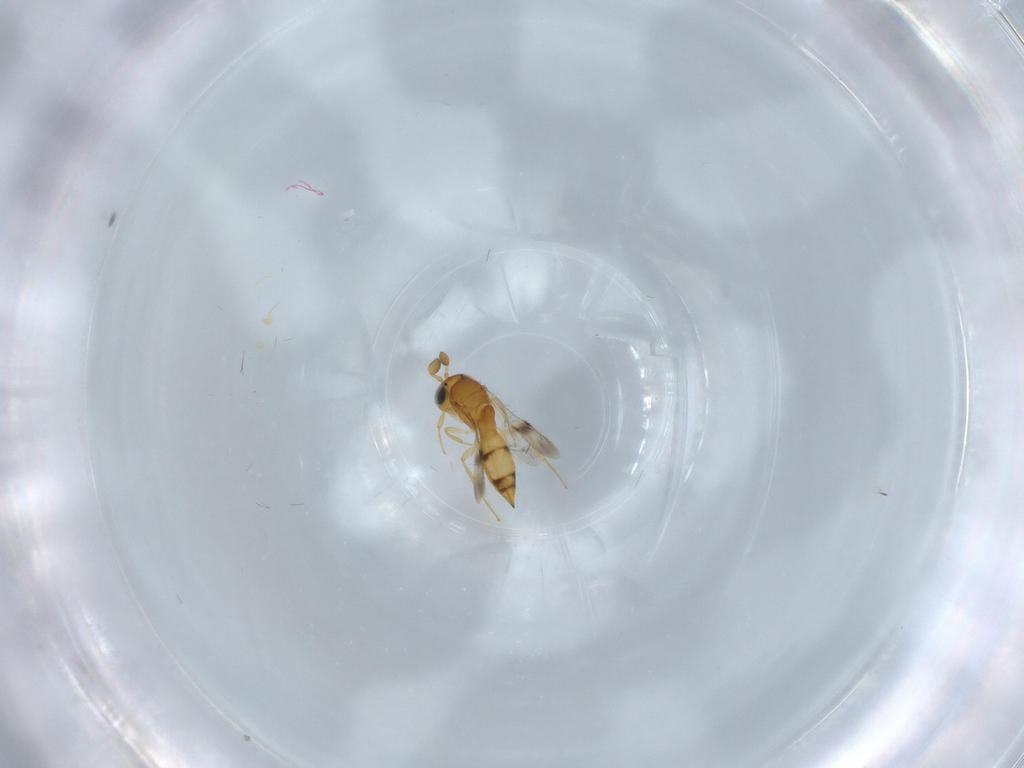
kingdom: Animalia
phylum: Arthropoda
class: Insecta
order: Hymenoptera
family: Scelionidae
